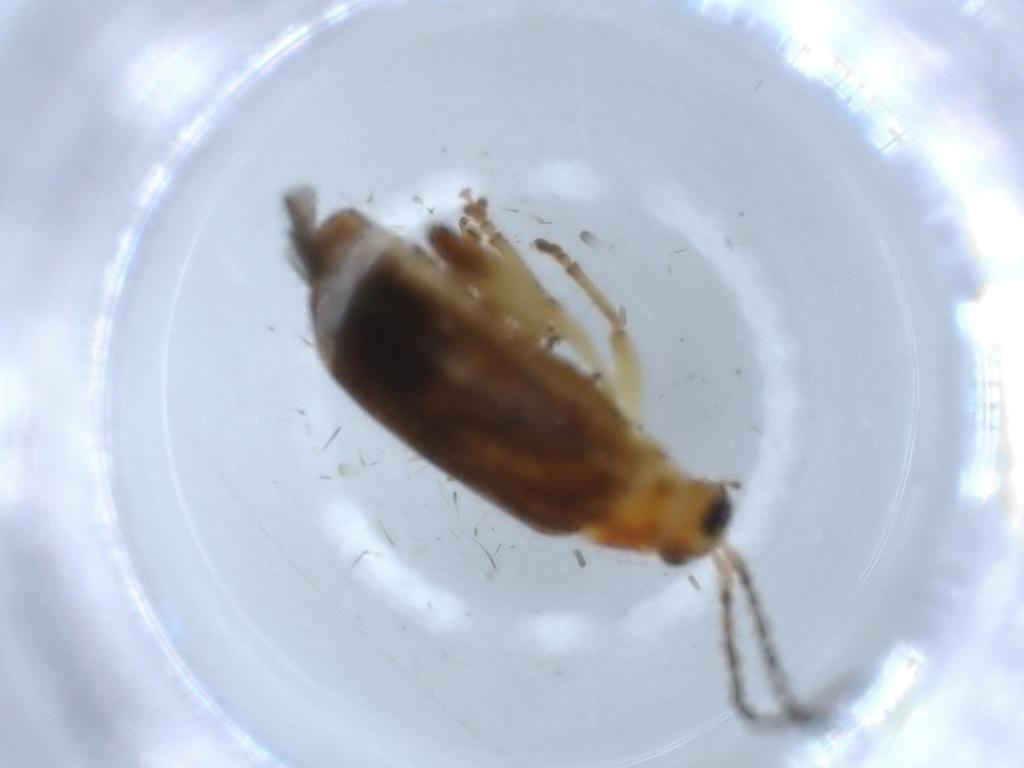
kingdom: Animalia
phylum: Arthropoda
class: Insecta
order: Coleoptera
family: Chrysomelidae
